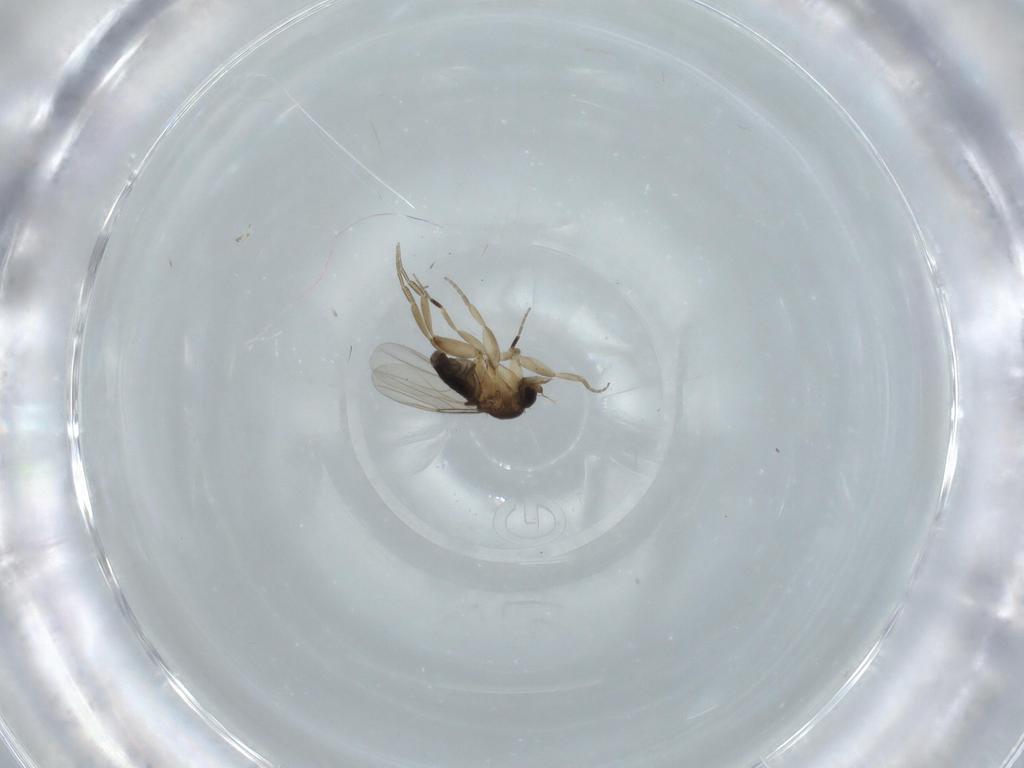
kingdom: Animalia
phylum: Arthropoda
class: Insecta
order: Diptera
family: Phoridae
